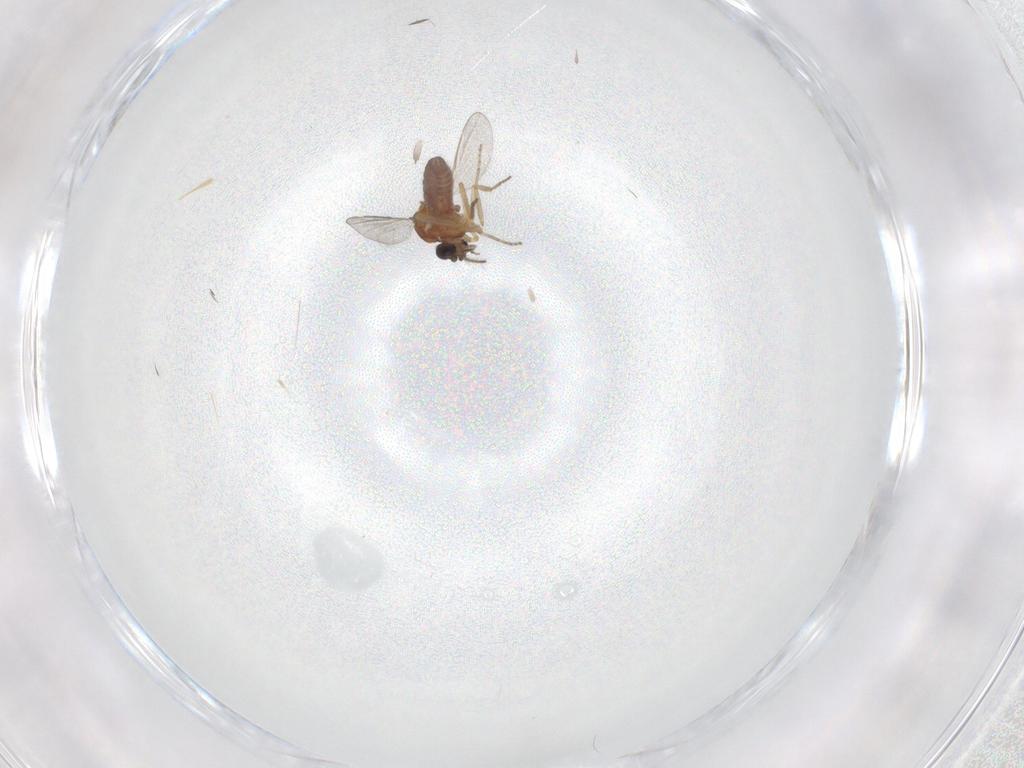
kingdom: Animalia
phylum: Arthropoda
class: Insecta
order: Diptera
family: Ceratopogonidae
